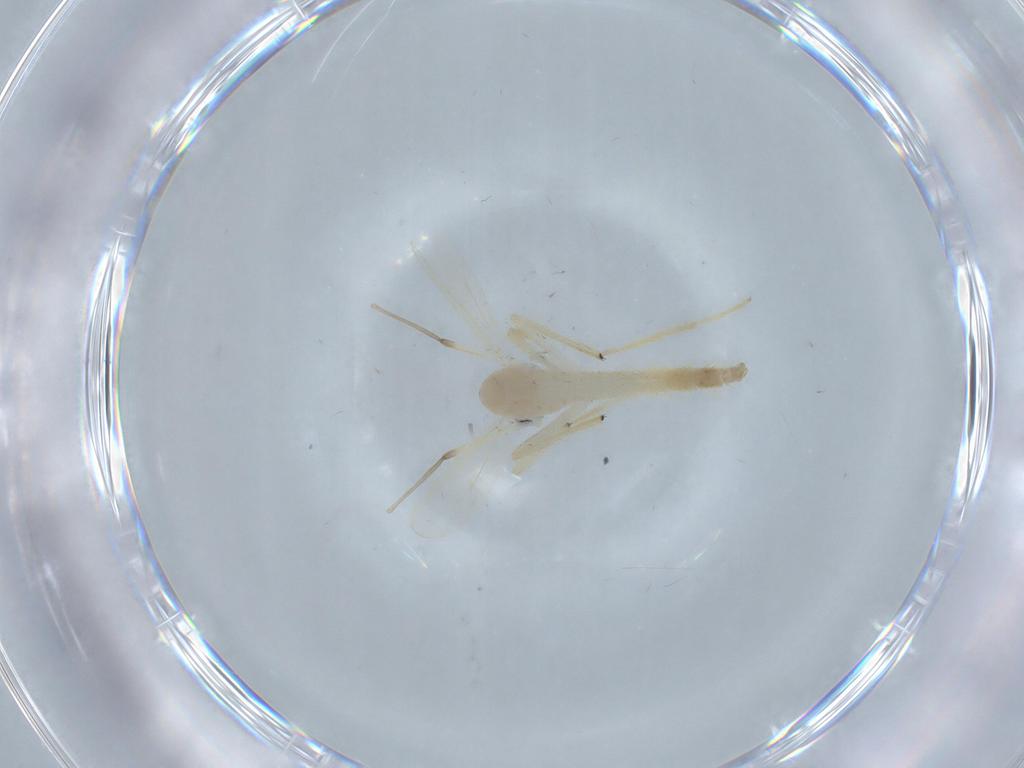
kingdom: Animalia
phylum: Arthropoda
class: Insecta
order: Diptera
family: Chironomidae
